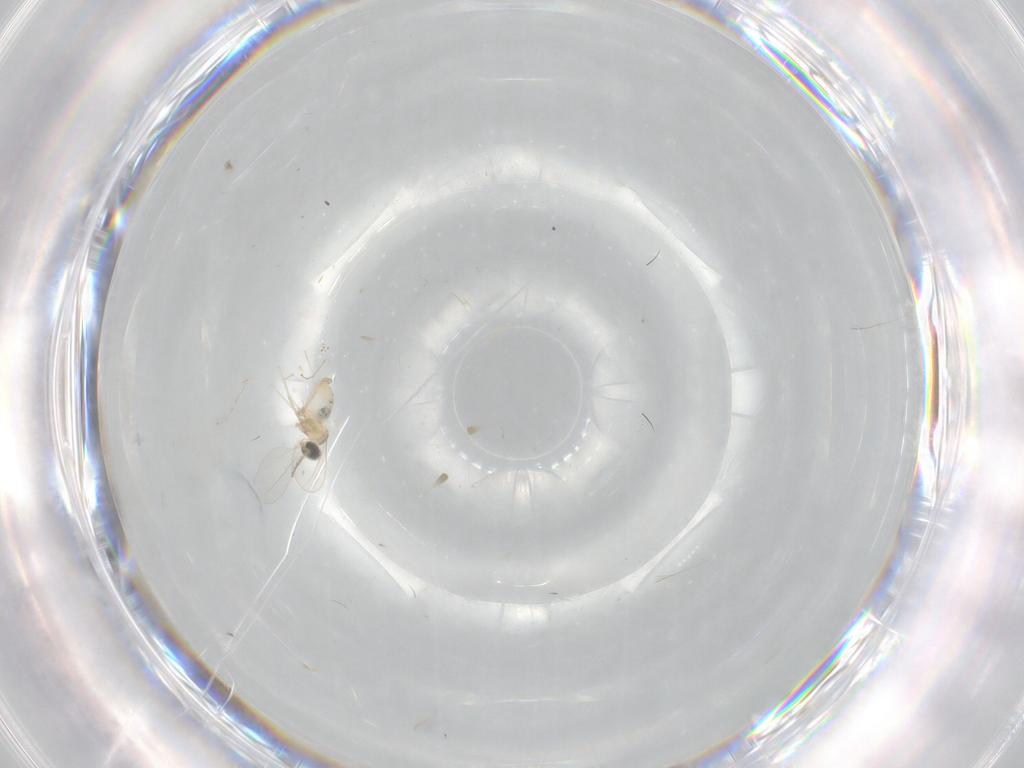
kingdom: Animalia
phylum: Arthropoda
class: Insecta
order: Diptera
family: Cecidomyiidae
